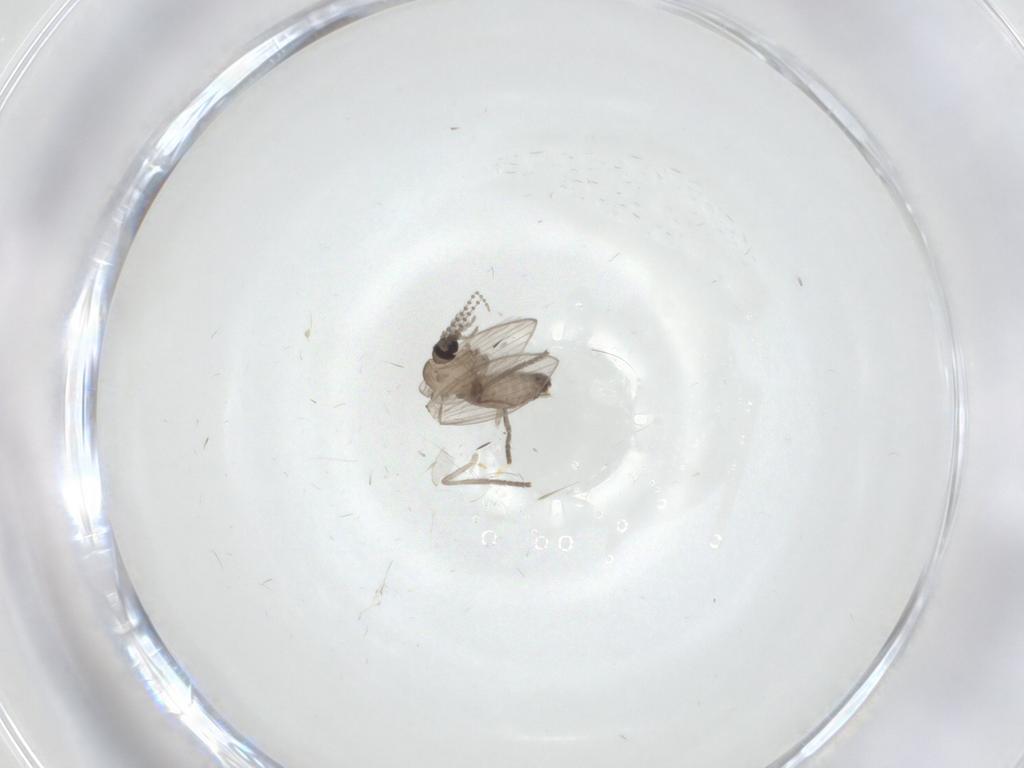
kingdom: Animalia
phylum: Arthropoda
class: Insecta
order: Diptera
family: Psychodidae
